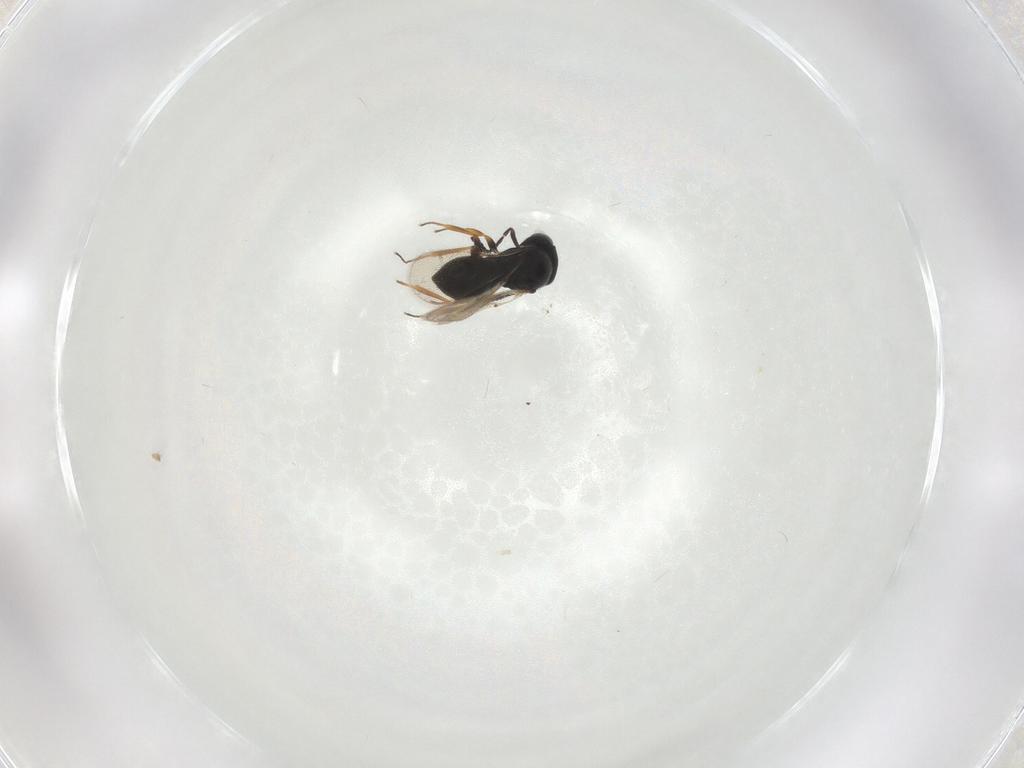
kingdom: Animalia
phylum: Arthropoda
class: Insecta
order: Hymenoptera
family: Scelionidae
